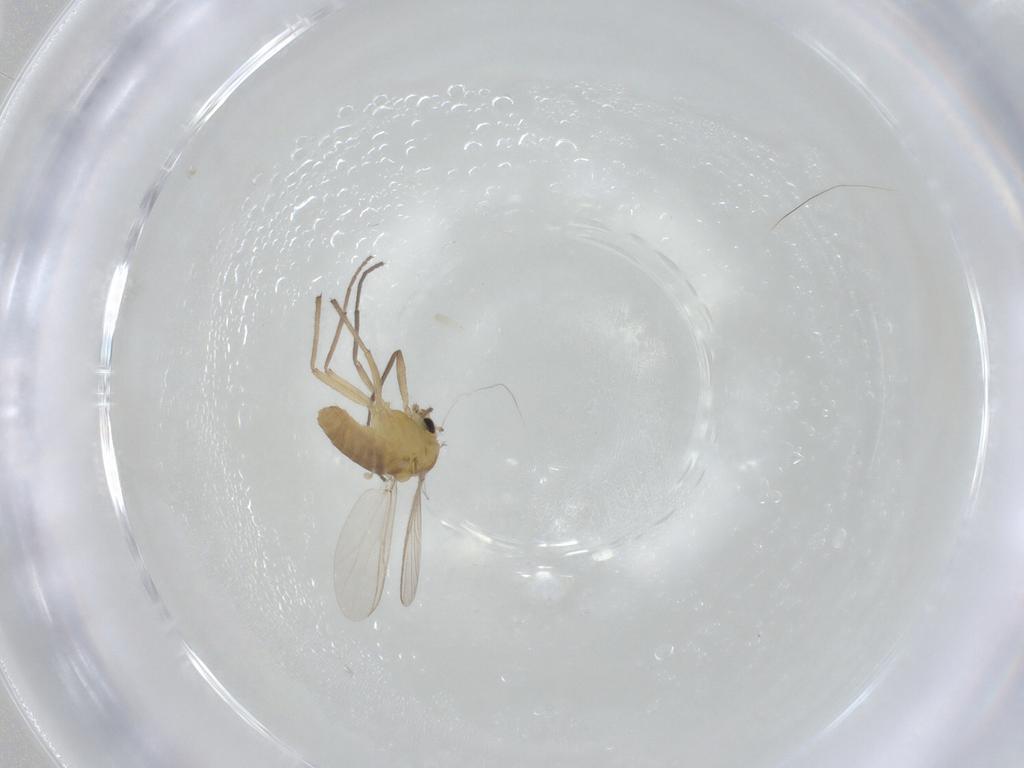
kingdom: Animalia
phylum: Arthropoda
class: Insecta
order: Diptera
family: Chironomidae
